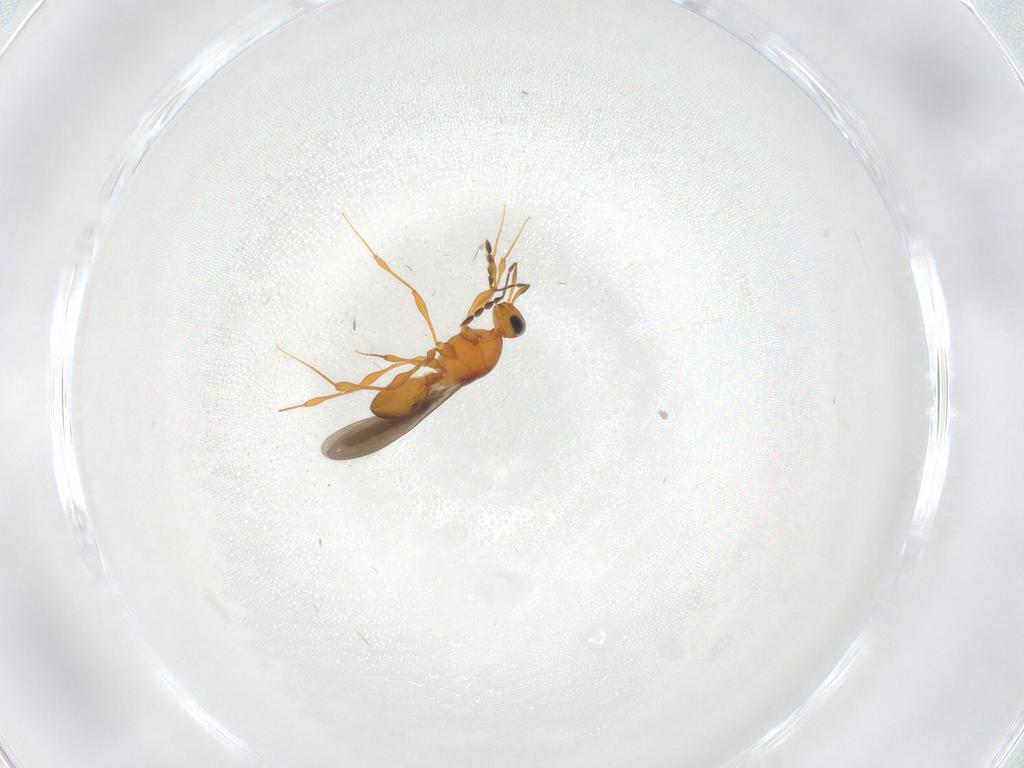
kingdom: Animalia
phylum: Arthropoda
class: Insecta
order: Hymenoptera
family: Platygastridae
